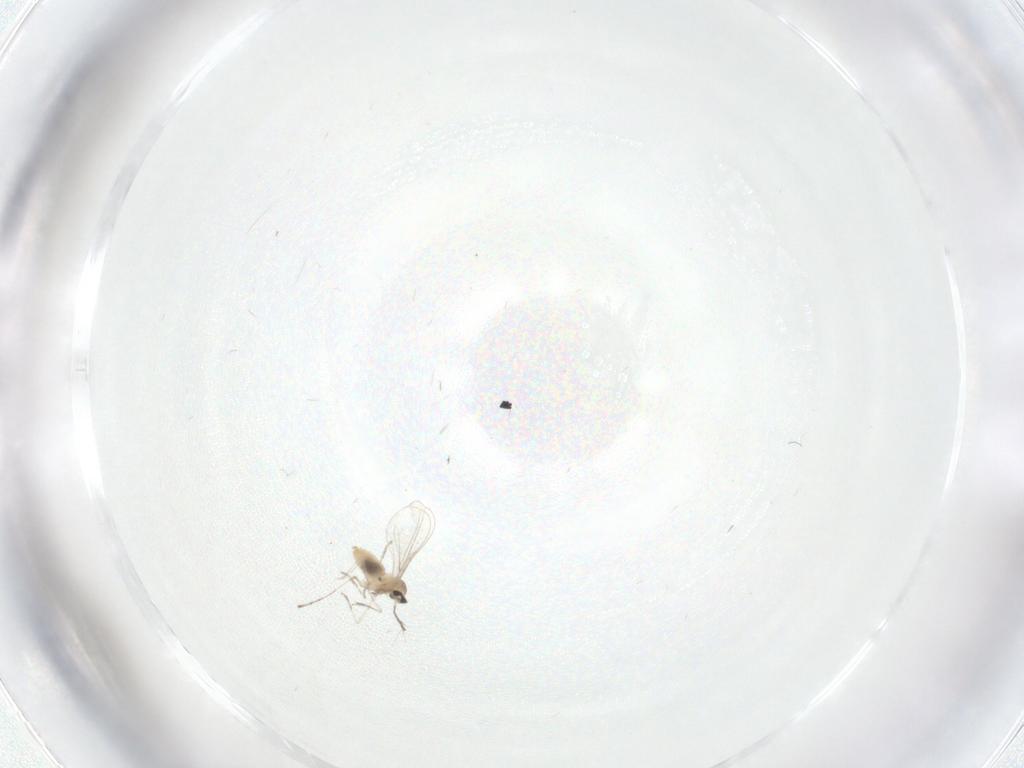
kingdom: Animalia
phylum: Arthropoda
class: Insecta
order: Diptera
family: Cecidomyiidae
